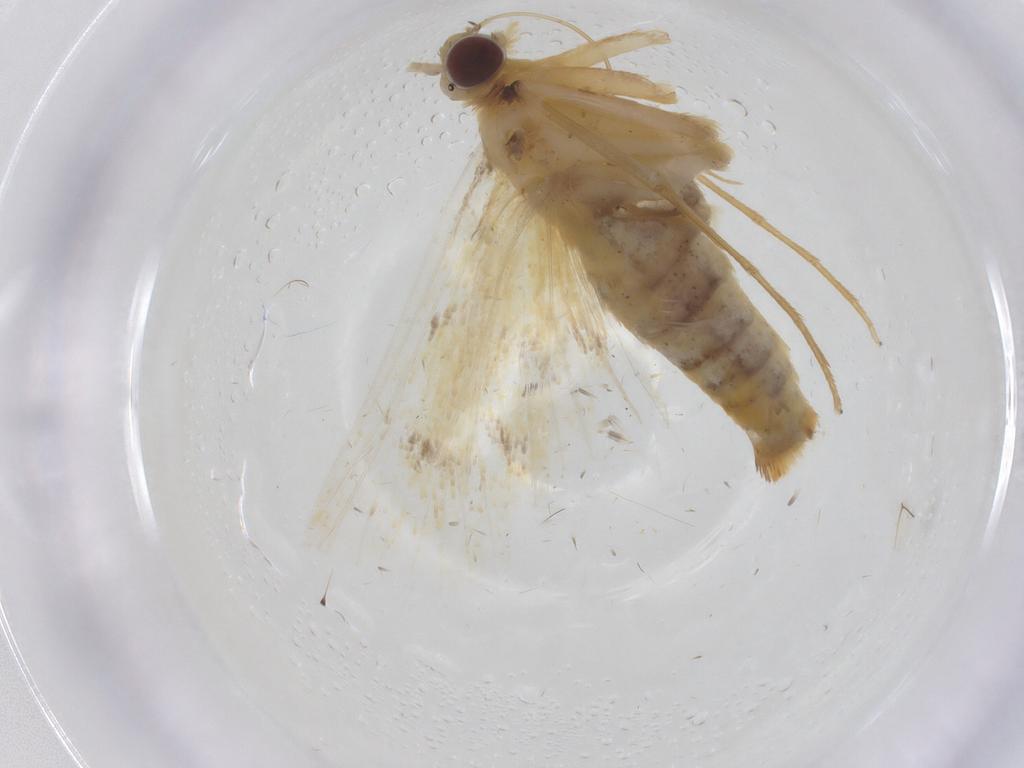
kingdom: Animalia
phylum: Arthropoda
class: Insecta
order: Lepidoptera
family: Crambidae
